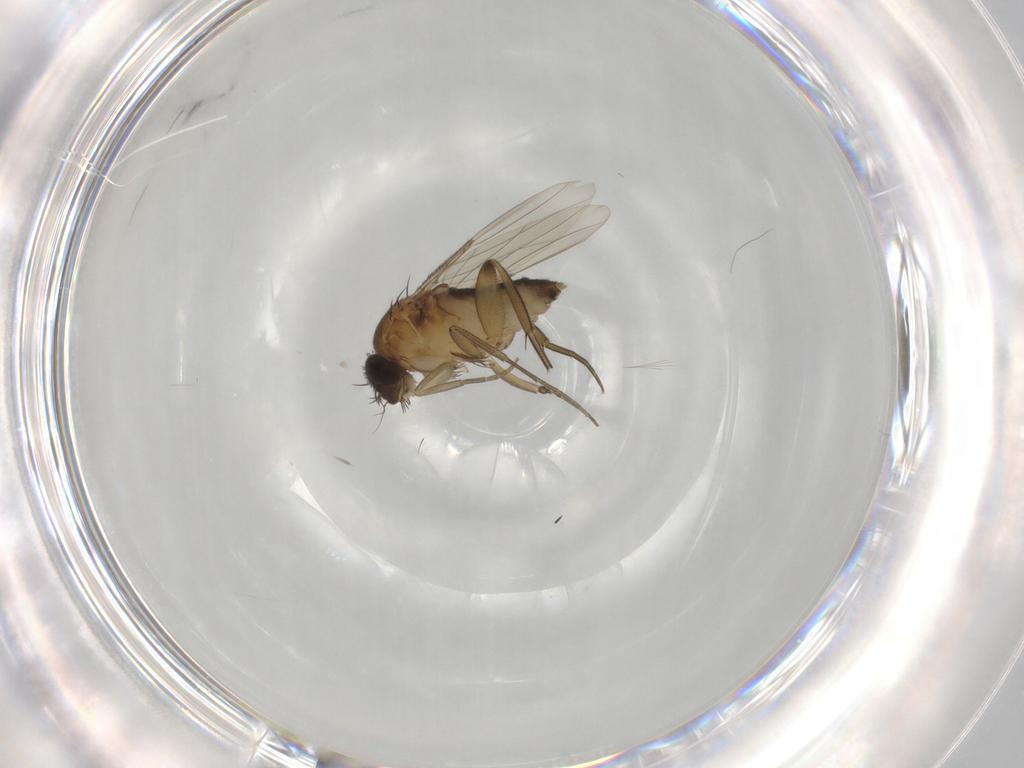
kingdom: Animalia
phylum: Arthropoda
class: Insecta
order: Diptera
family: Phoridae
